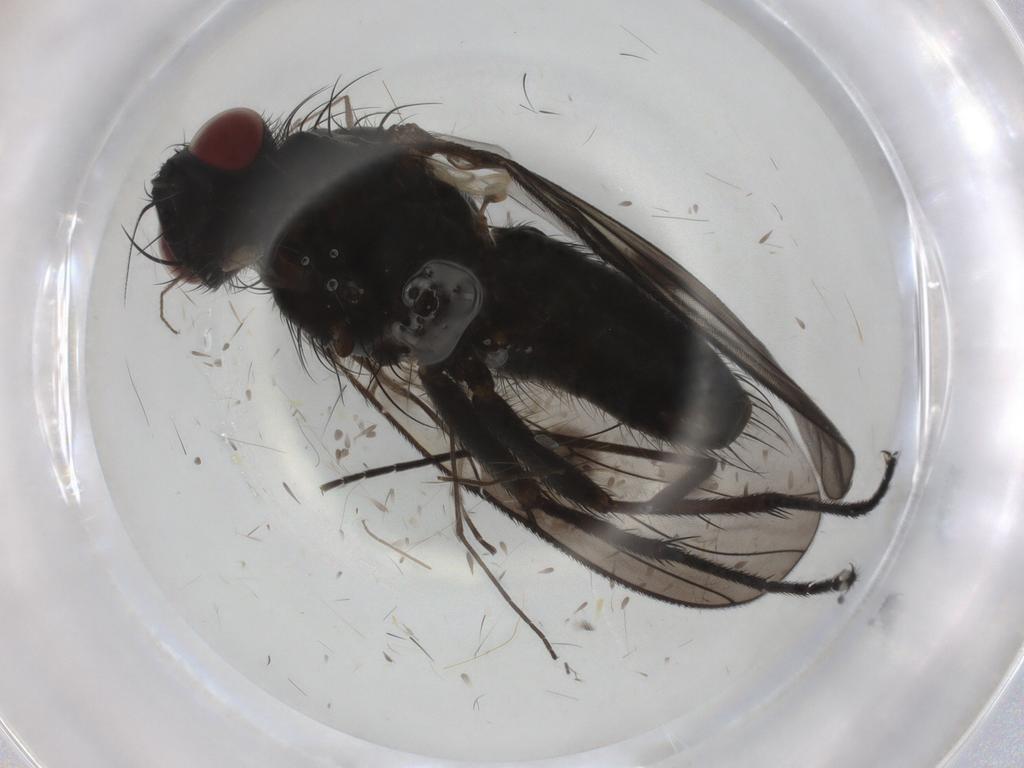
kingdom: Animalia
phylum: Arthropoda
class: Insecta
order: Diptera
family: Muscidae
